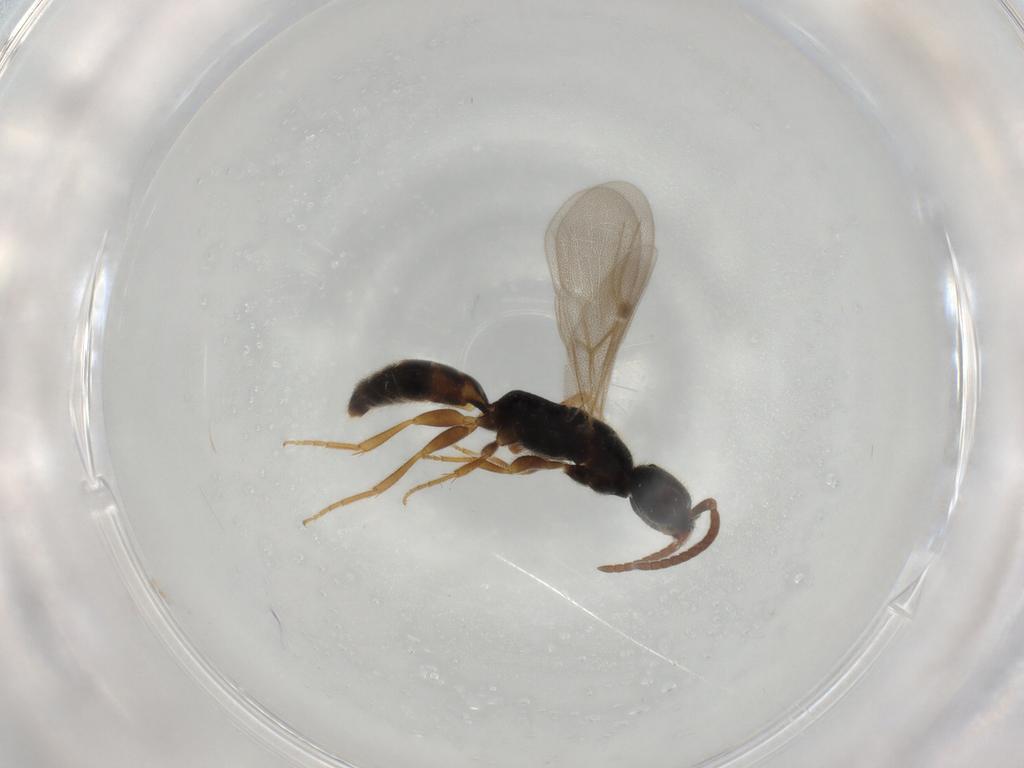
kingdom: Animalia
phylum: Arthropoda
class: Insecta
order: Hymenoptera
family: Bethylidae
